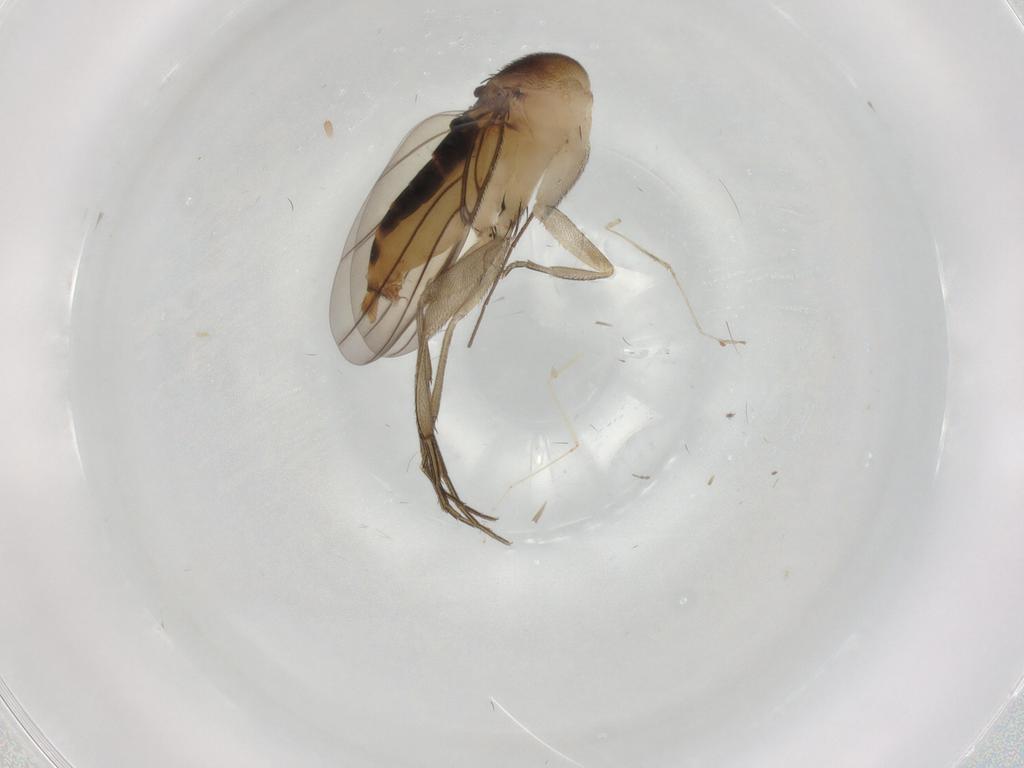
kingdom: Animalia
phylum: Arthropoda
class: Insecta
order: Diptera
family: Phoridae
